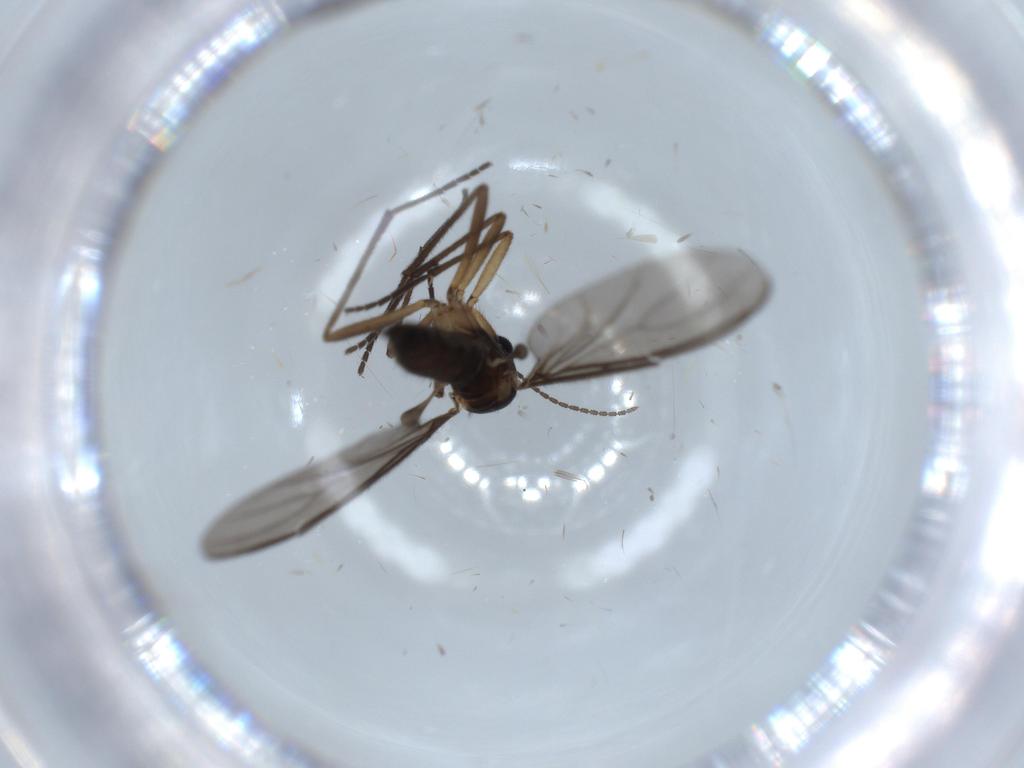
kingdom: Animalia
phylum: Arthropoda
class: Insecta
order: Diptera
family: Sciaridae
